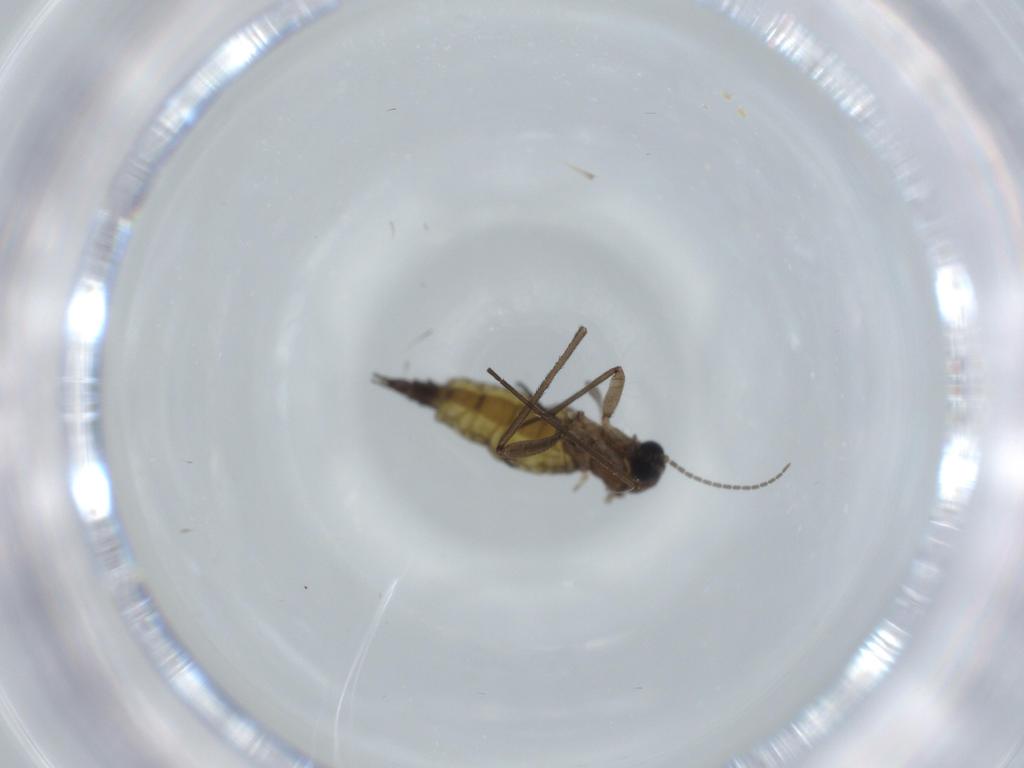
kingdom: Animalia
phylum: Arthropoda
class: Insecta
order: Diptera
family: Sciaridae
